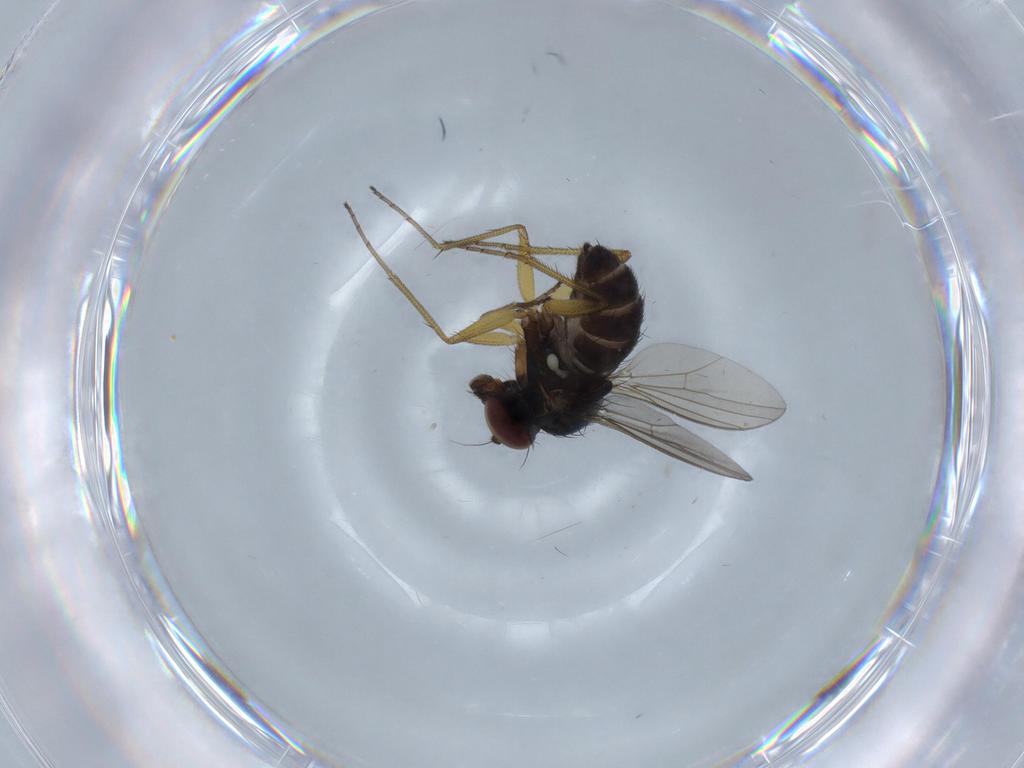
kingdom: Animalia
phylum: Arthropoda
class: Insecta
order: Diptera
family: Dolichopodidae
